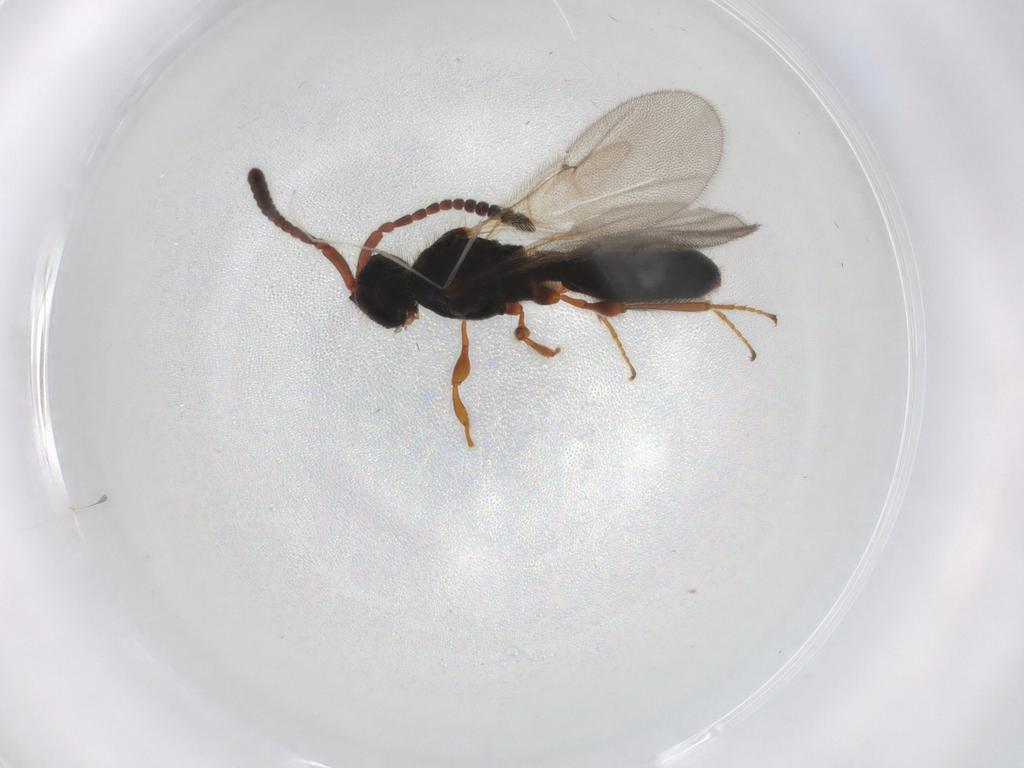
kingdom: Animalia
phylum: Arthropoda
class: Insecta
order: Hymenoptera
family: Diapriidae
